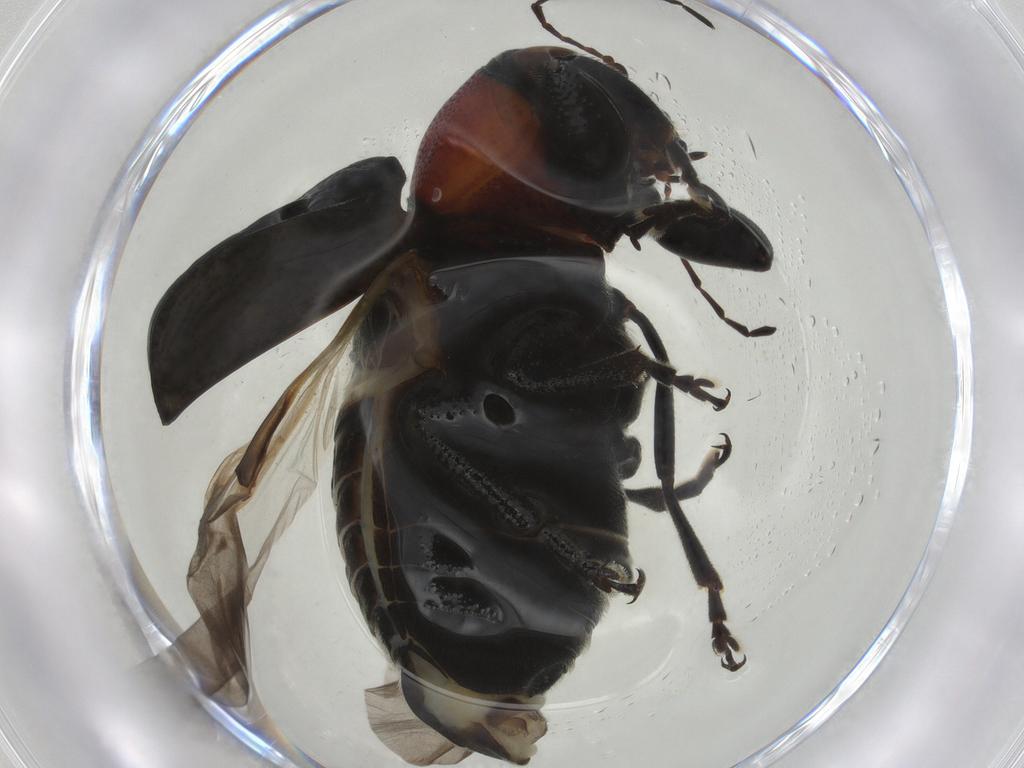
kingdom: Animalia
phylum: Arthropoda
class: Insecta
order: Coleoptera
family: Chrysomelidae
